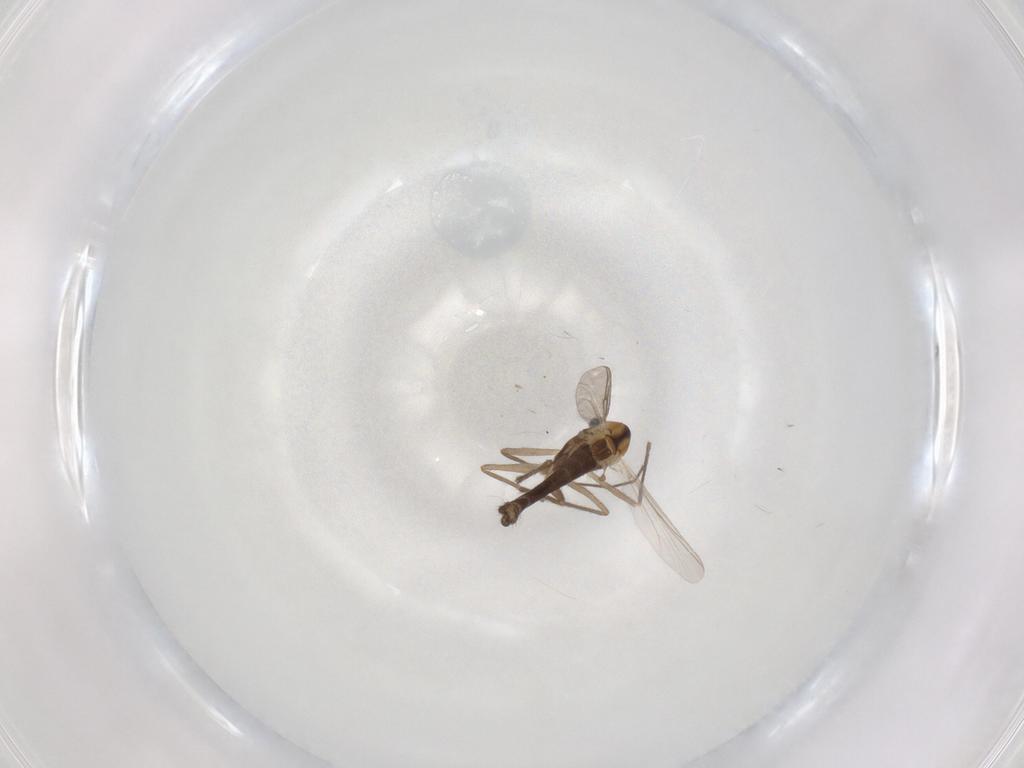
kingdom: Animalia
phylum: Arthropoda
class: Insecta
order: Diptera
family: Chironomidae
